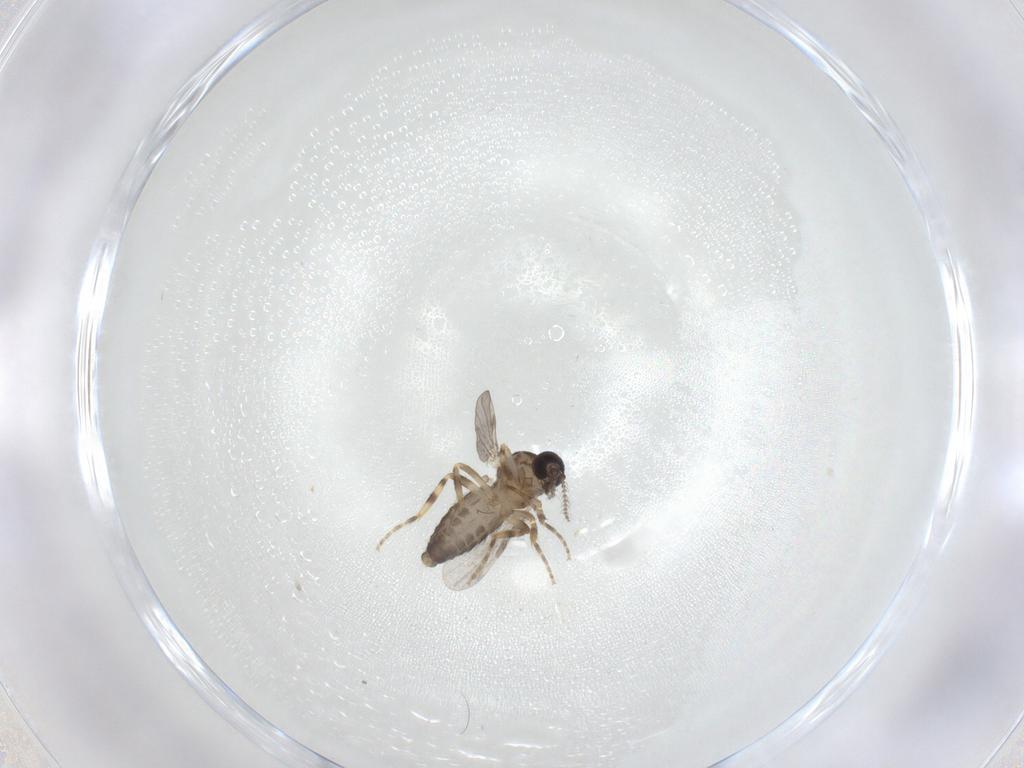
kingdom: Animalia
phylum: Arthropoda
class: Insecta
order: Diptera
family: Ceratopogonidae
